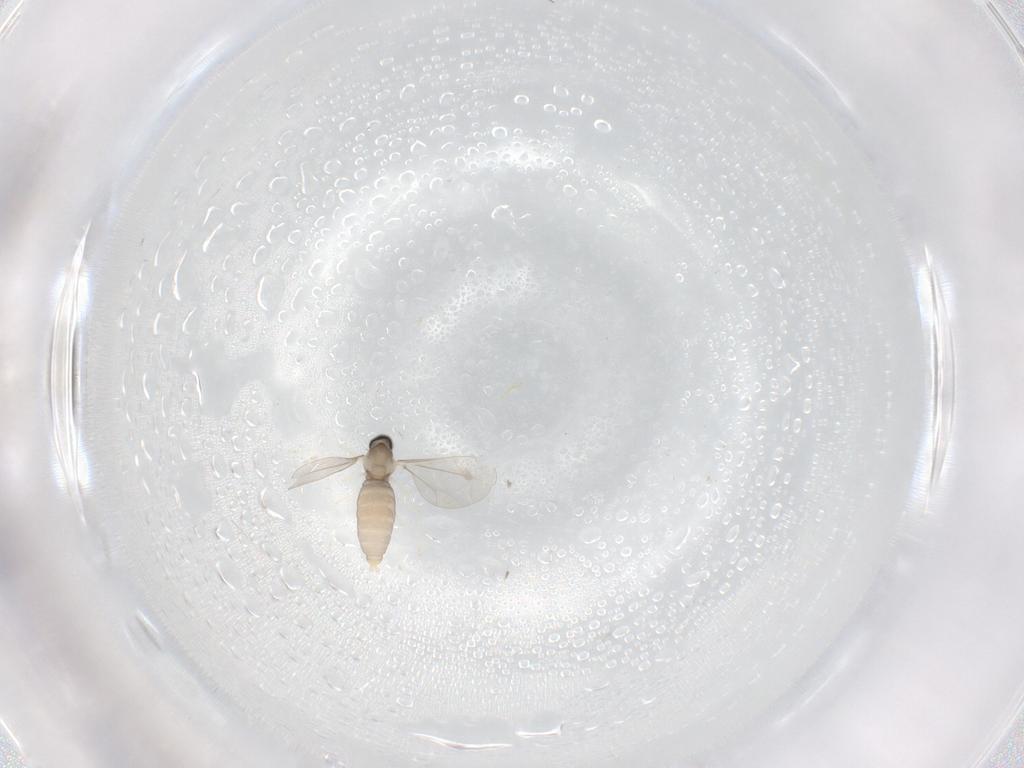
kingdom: Animalia
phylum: Arthropoda
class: Insecta
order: Diptera
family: Cecidomyiidae
